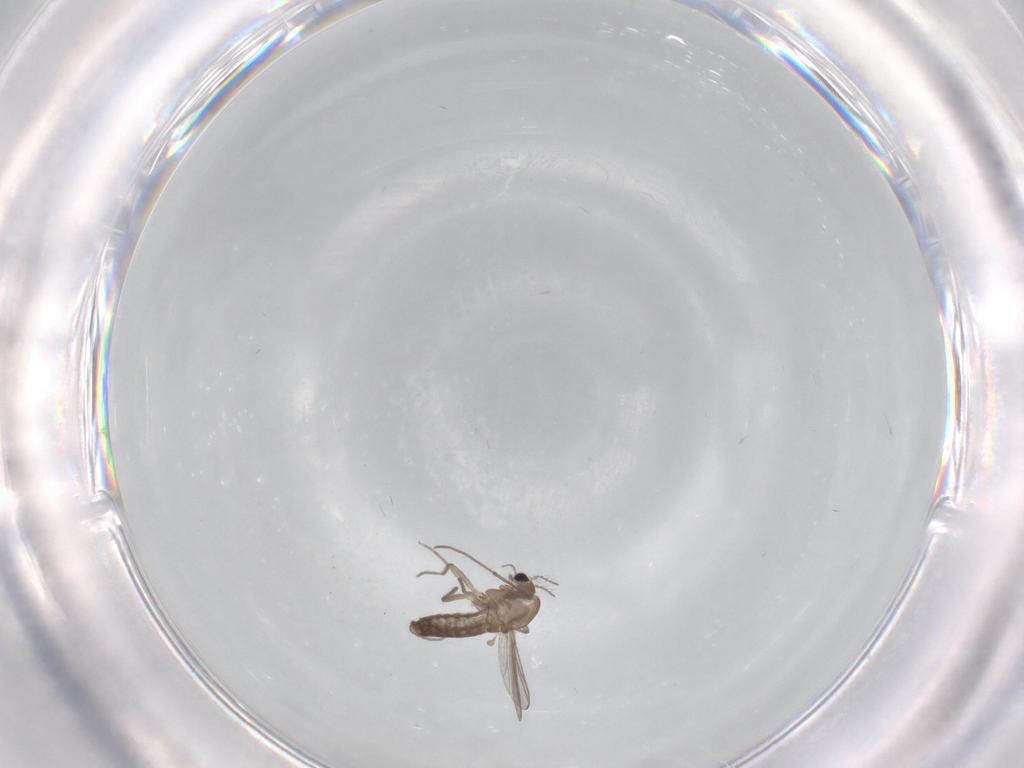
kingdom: Animalia
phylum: Arthropoda
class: Insecta
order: Diptera
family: Chironomidae
